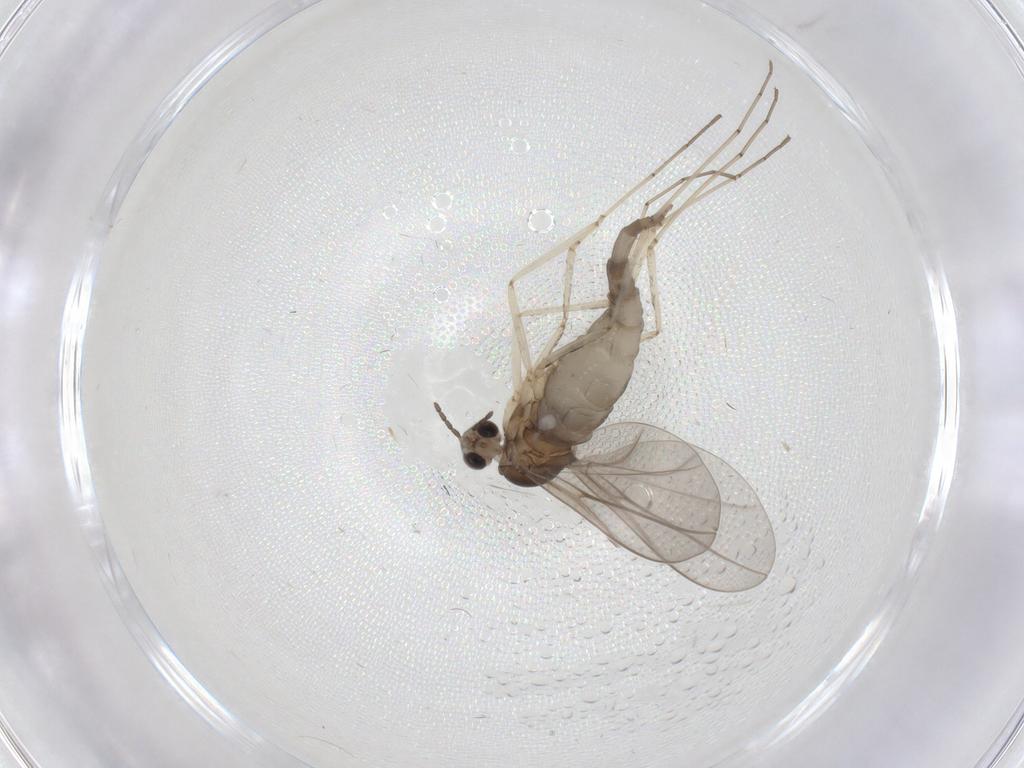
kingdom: Animalia
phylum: Arthropoda
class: Insecta
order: Diptera
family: Cecidomyiidae
